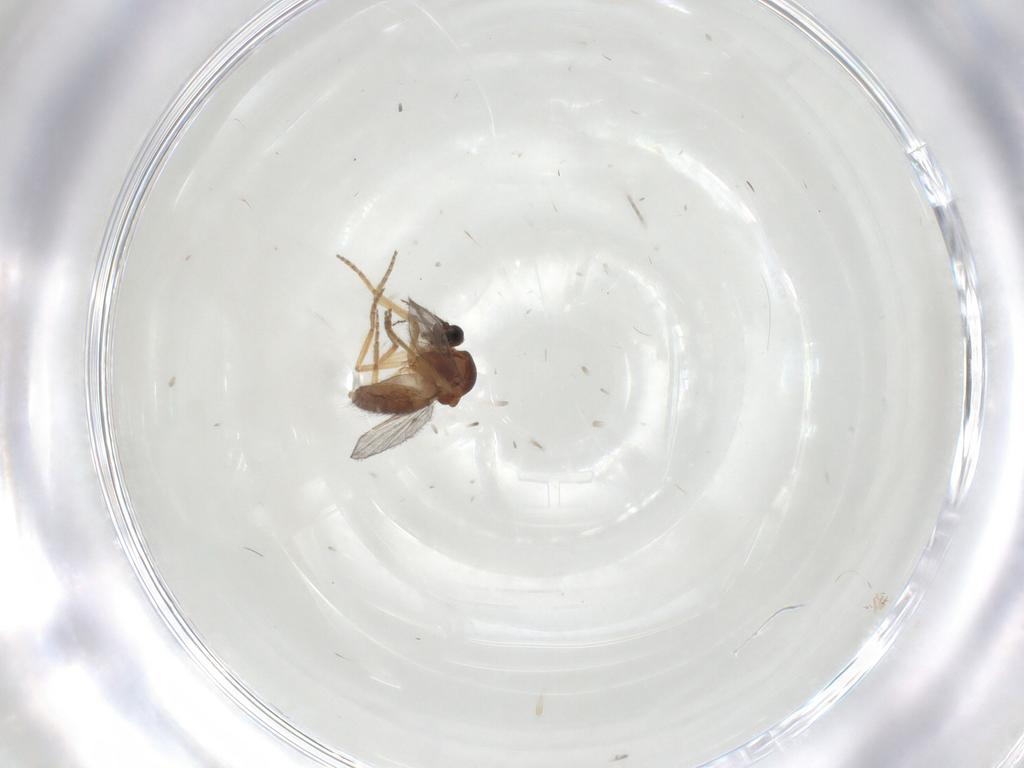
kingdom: Animalia
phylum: Arthropoda
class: Insecta
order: Diptera
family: Ceratopogonidae
